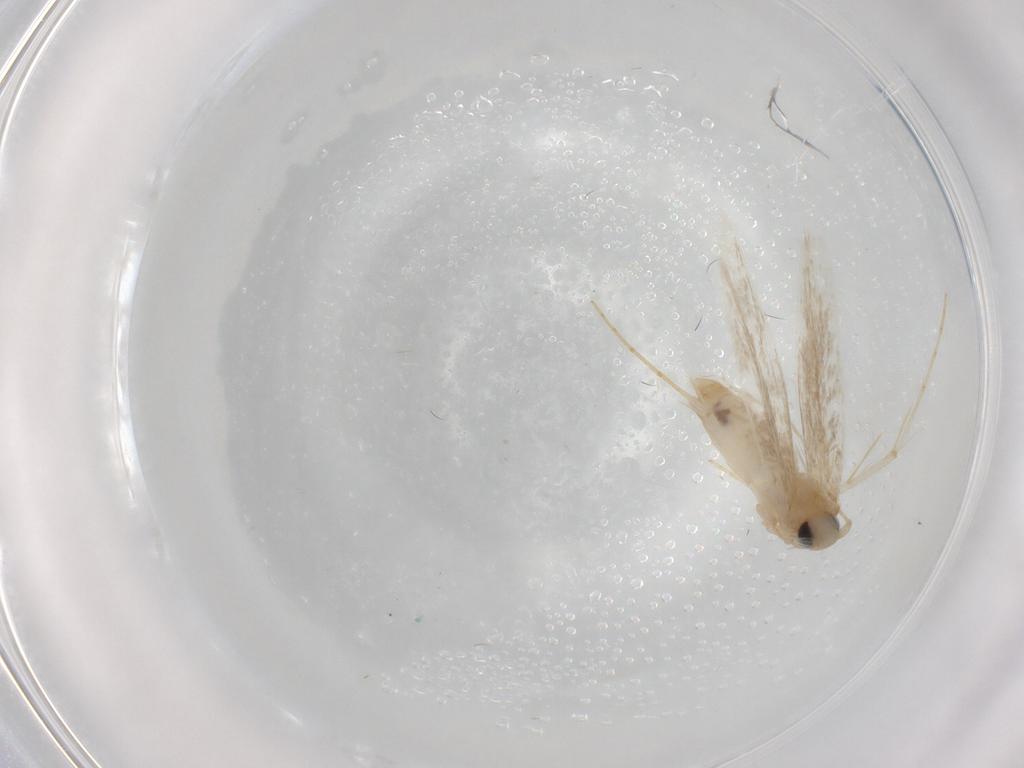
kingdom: Animalia
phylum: Arthropoda
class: Insecta
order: Lepidoptera
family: Psychidae
